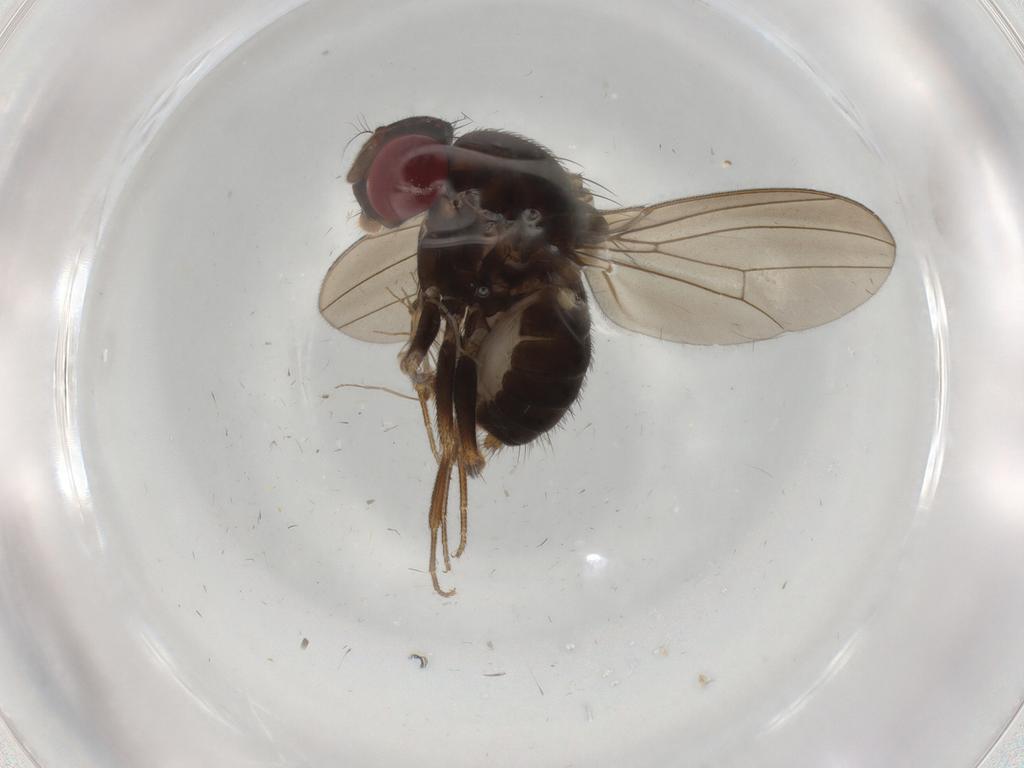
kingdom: Animalia
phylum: Arthropoda
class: Insecta
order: Diptera
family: Drosophilidae
